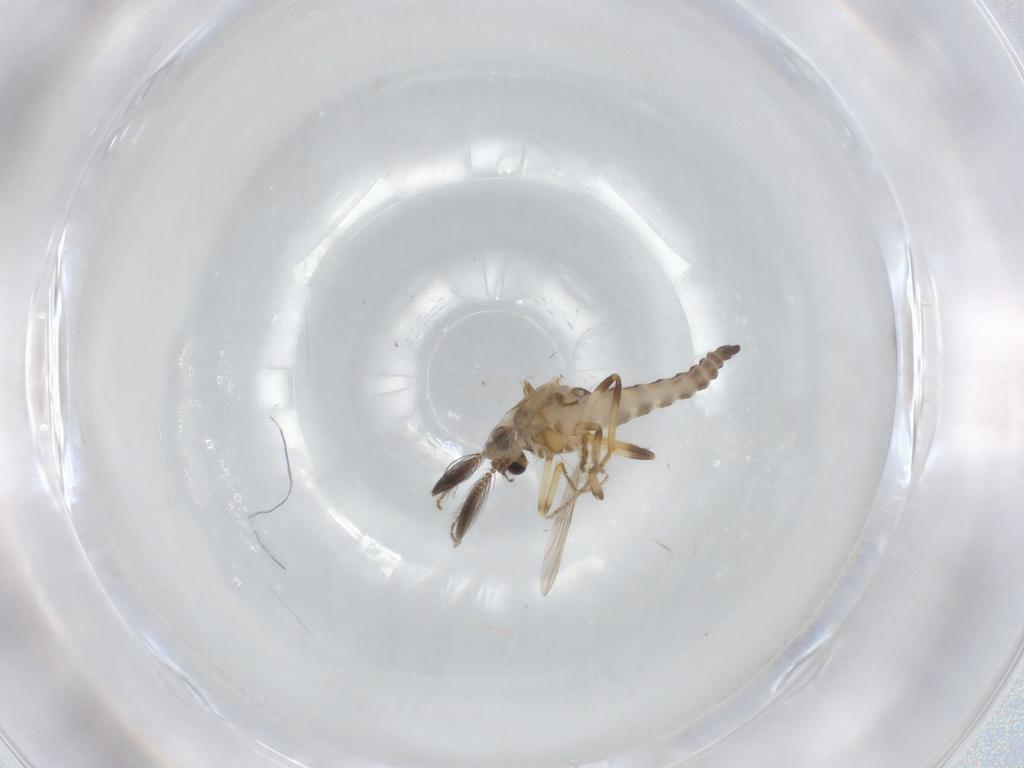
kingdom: Animalia
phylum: Arthropoda
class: Insecta
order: Diptera
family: Ceratopogonidae
